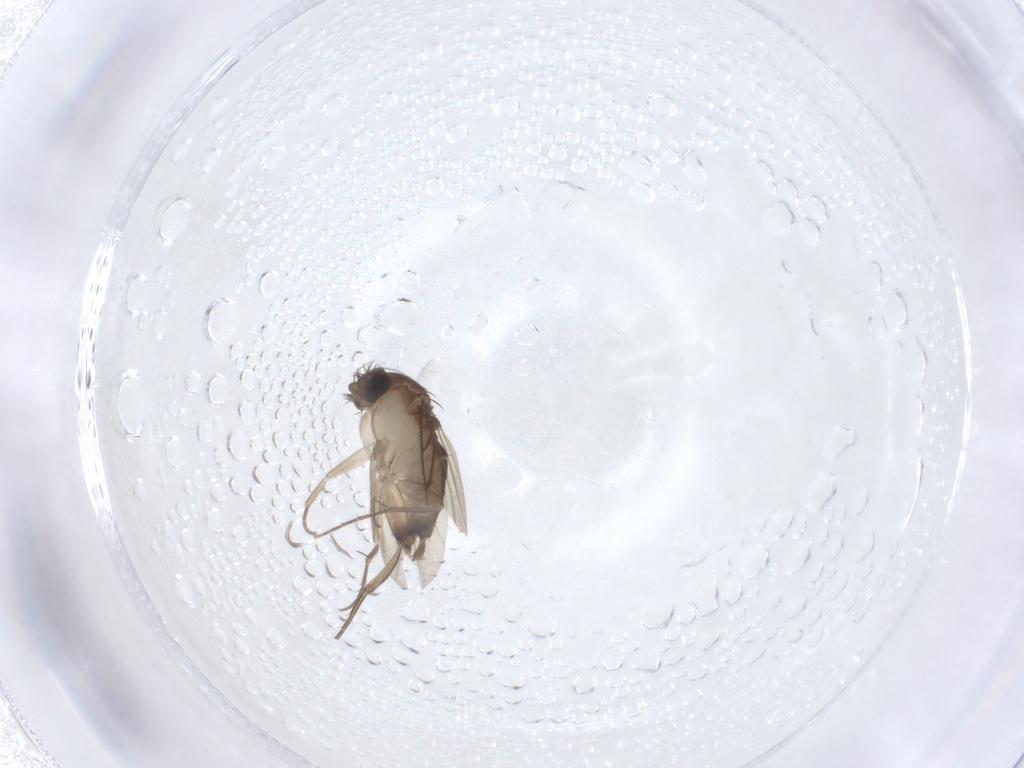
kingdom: Animalia
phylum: Arthropoda
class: Insecta
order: Diptera
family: Phoridae
